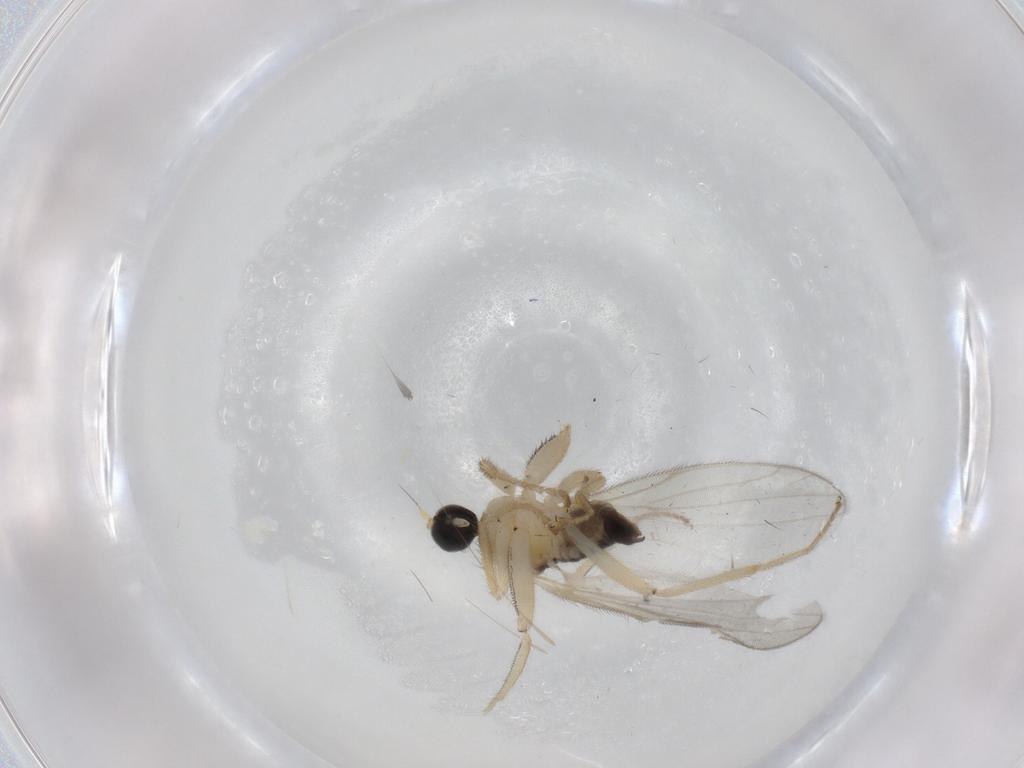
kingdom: Animalia
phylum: Arthropoda
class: Insecta
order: Diptera
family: Hybotidae
